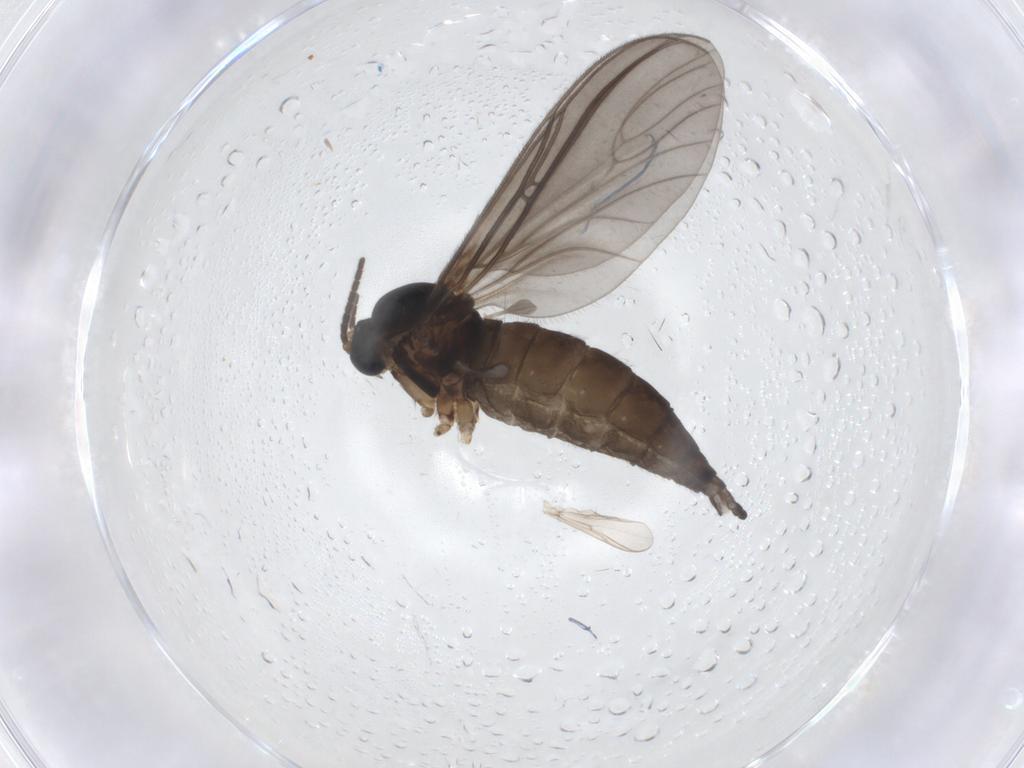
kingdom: Animalia
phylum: Arthropoda
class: Insecta
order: Diptera
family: Sciaridae
